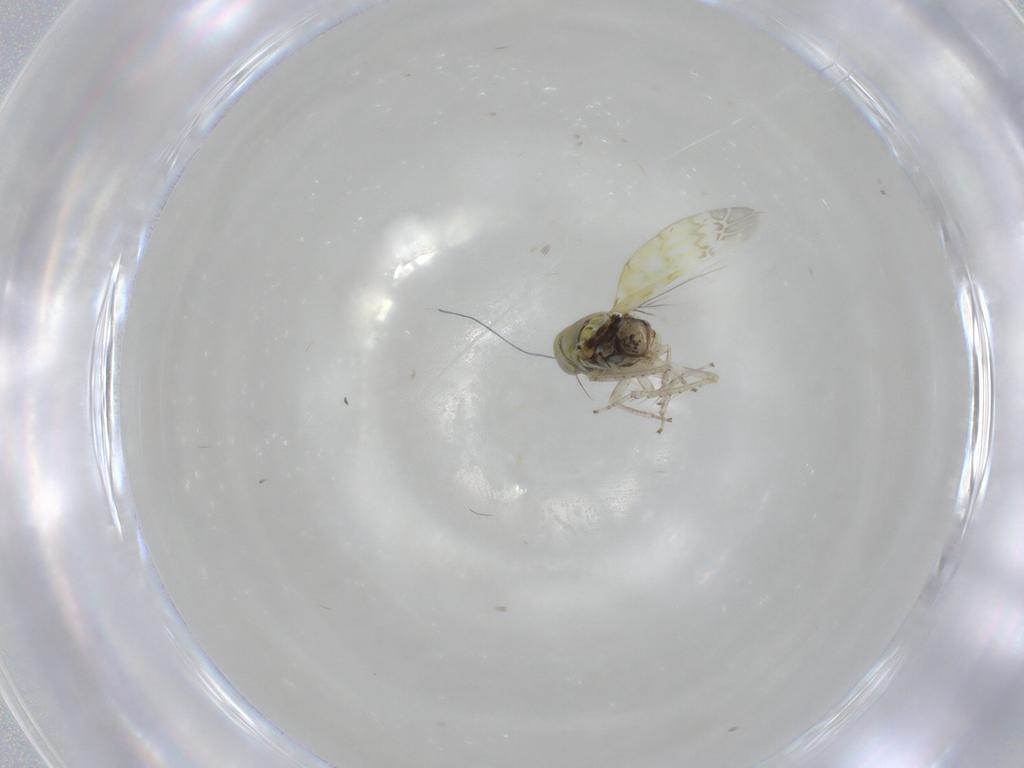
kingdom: Animalia
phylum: Arthropoda
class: Insecta
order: Hemiptera
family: Cicadellidae
